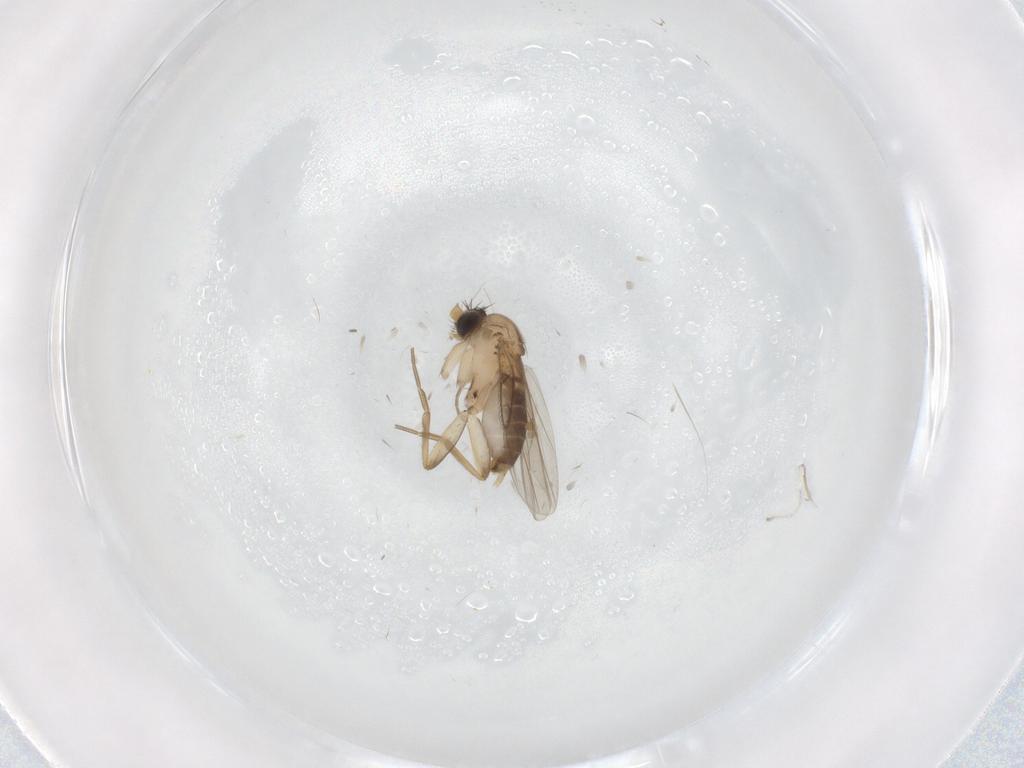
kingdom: Animalia
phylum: Arthropoda
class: Insecta
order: Diptera
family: Phoridae
